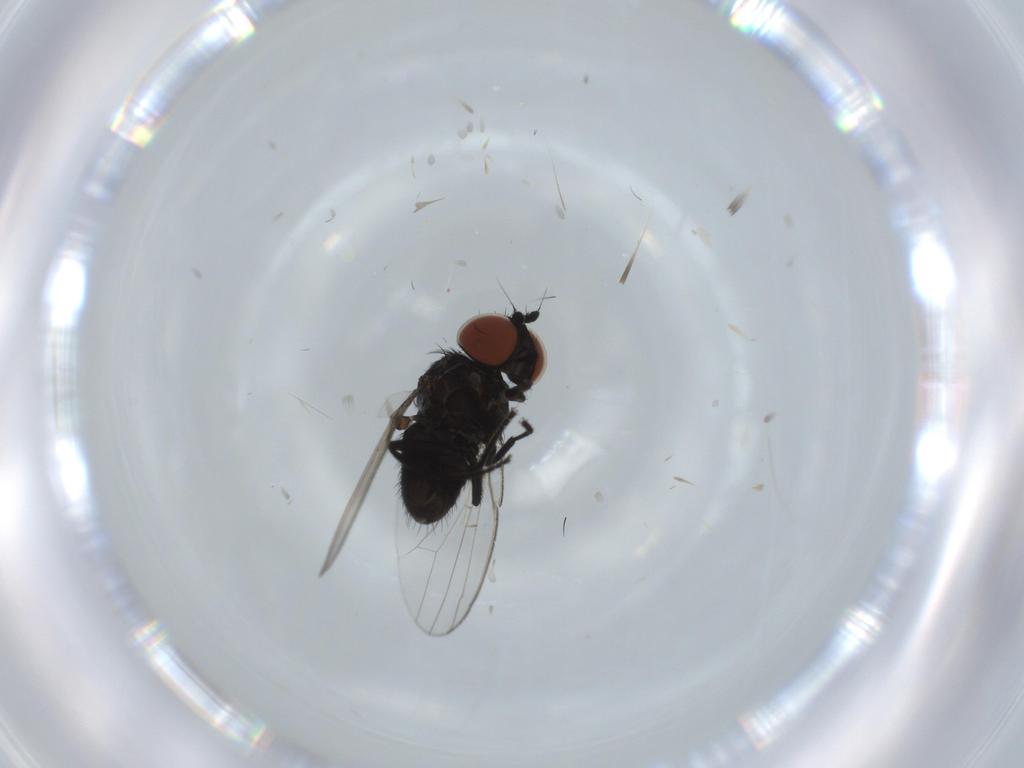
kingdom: Animalia
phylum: Arthropoda
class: Insecta
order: Diptera
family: Milichiidae
